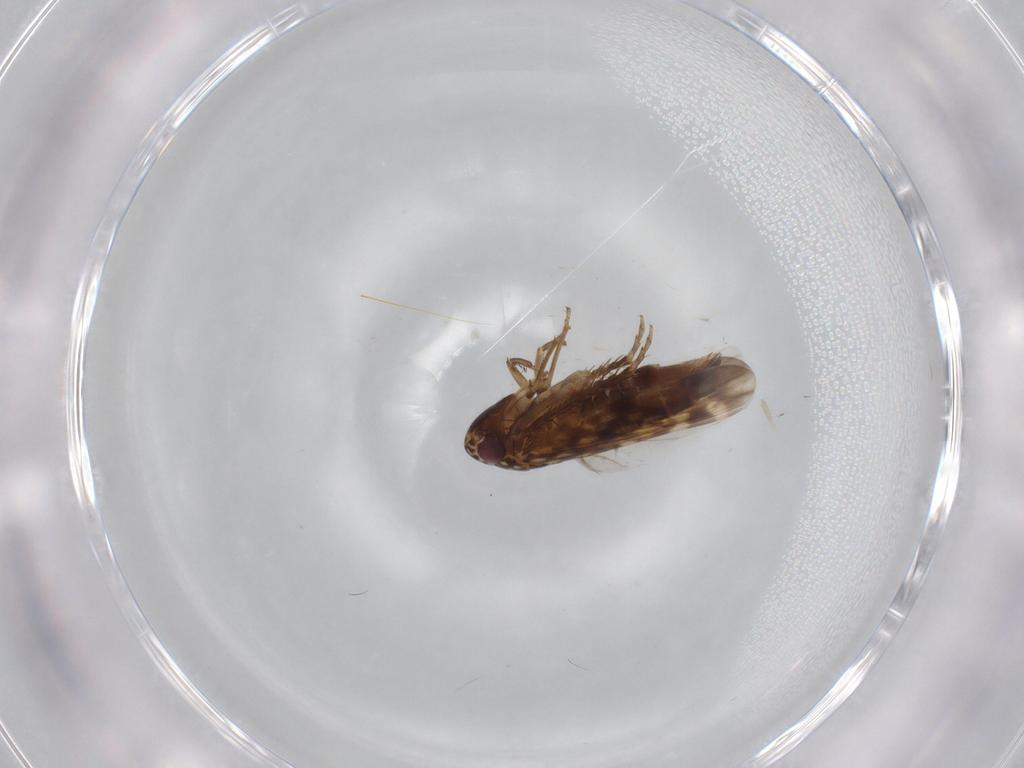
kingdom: Animalia
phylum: Arthropoda
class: Insecta
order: Hemiptera
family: Cicadellidae
